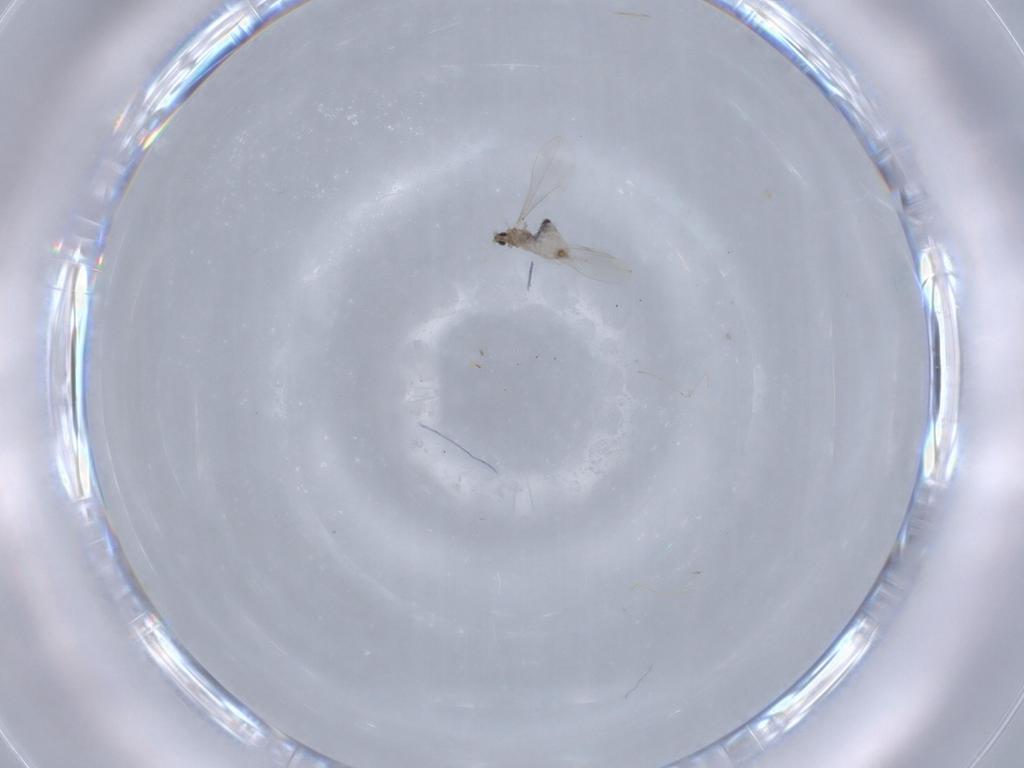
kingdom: Animalia
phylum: Arthropoda
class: Insecta
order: Diptera
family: Cecidomyiidae
